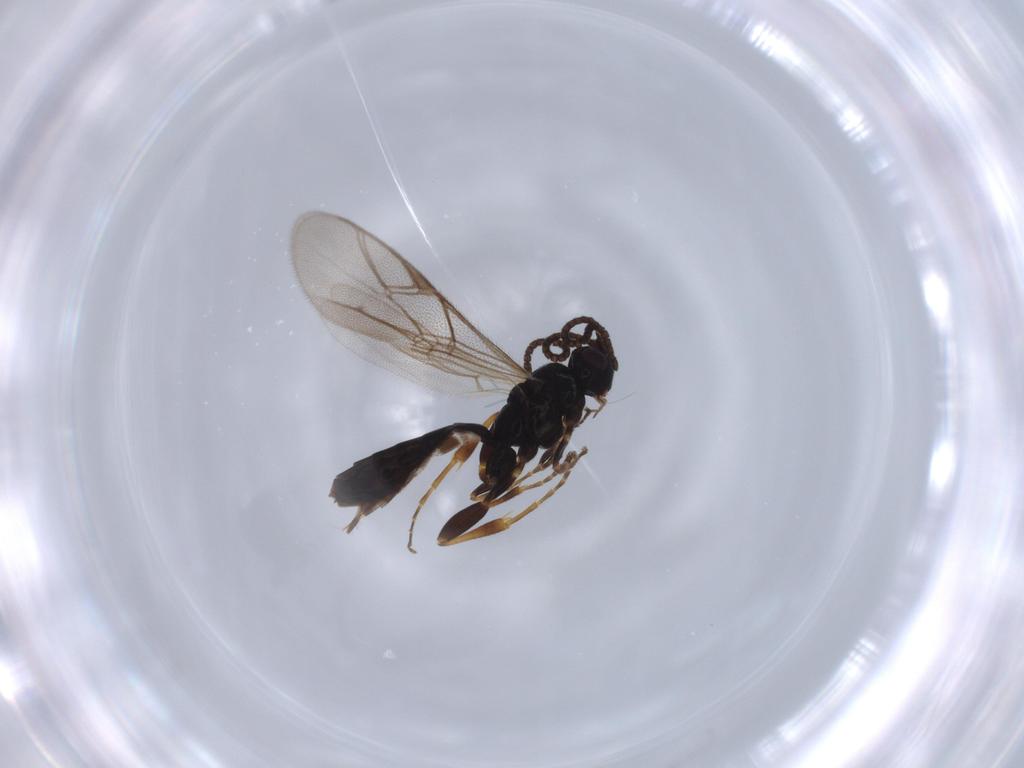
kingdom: Animalia
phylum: Arthropoda
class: Insecta
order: Hymenoptera
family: Ichneumonidae
